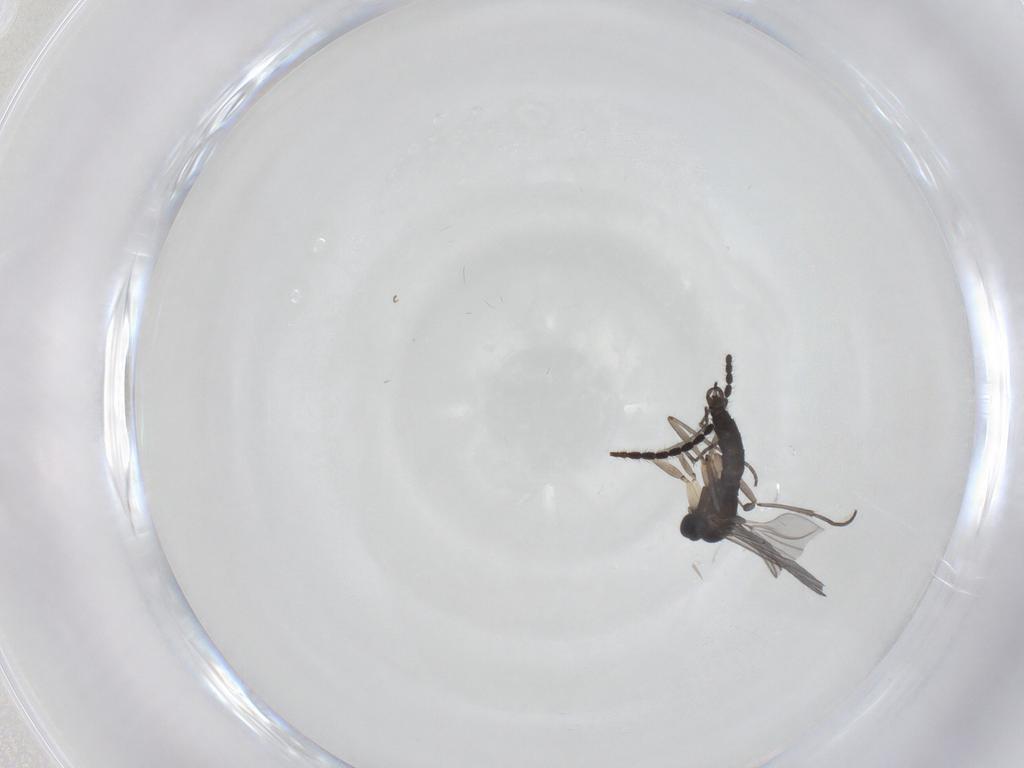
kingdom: Animalia
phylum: Arthropoda
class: Insecta
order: Diptera
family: Sciaridae
